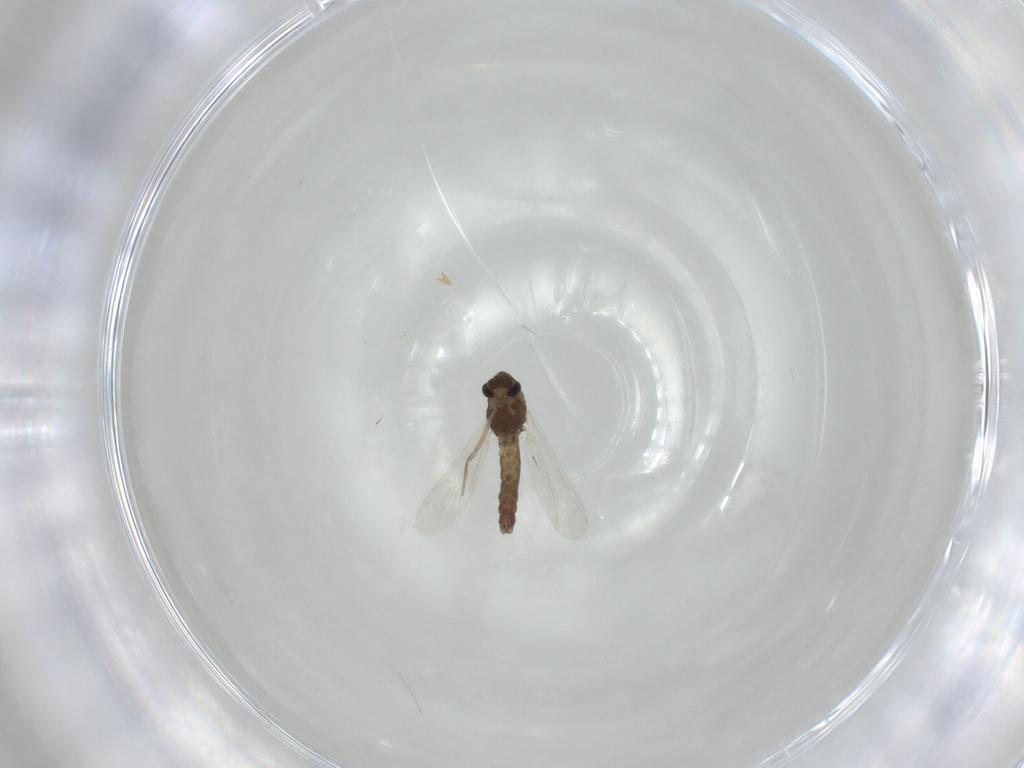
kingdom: Animalia
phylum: Arthropoda
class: Insecta
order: Diptera
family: Chironomidae
